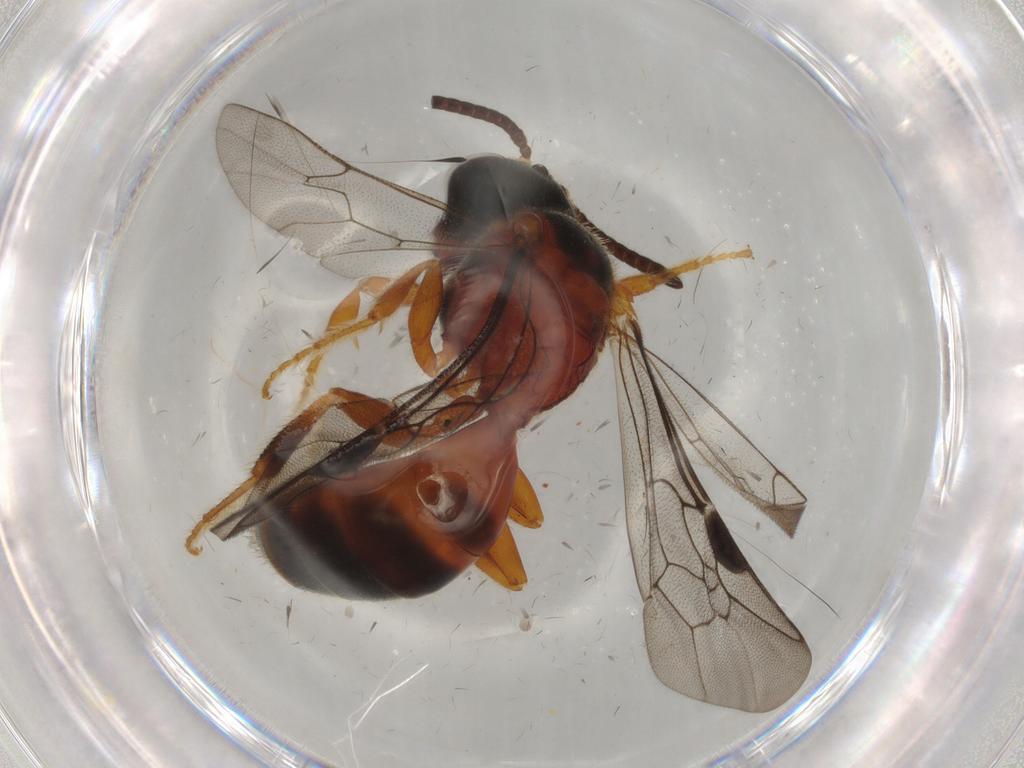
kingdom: Animalia
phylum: Arthropoda
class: Insecta
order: Hymenoptera
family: Halictidae
